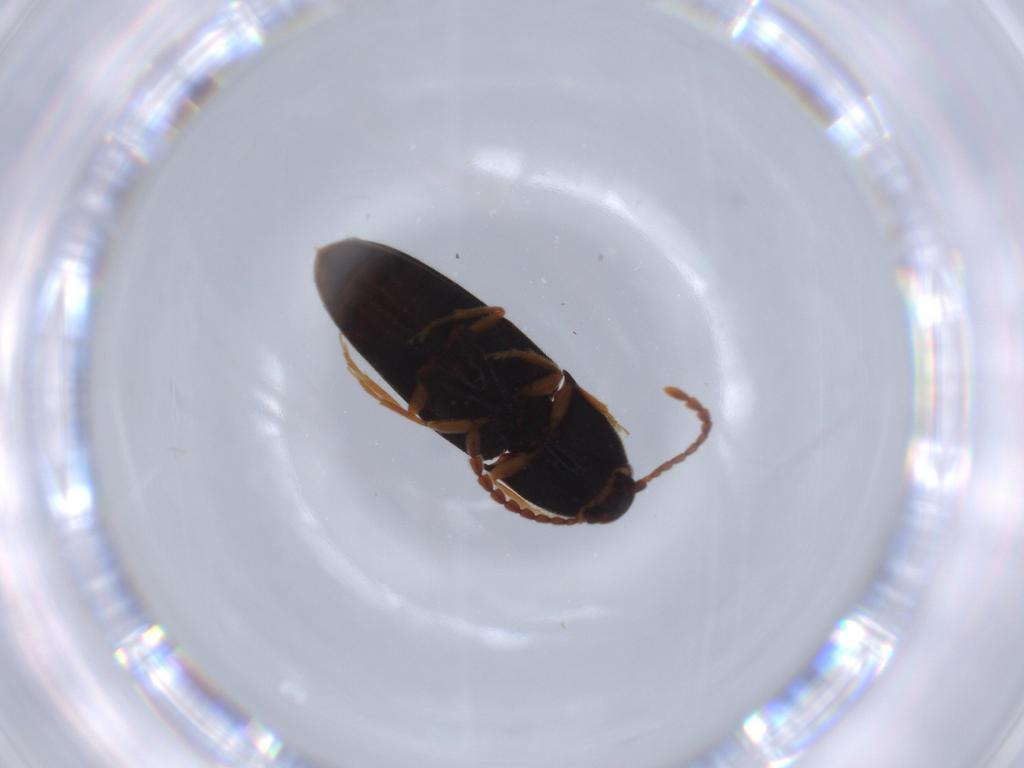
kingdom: Animalia
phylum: Arthropoda
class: Insecta
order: Coleoptera
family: Elateridae
